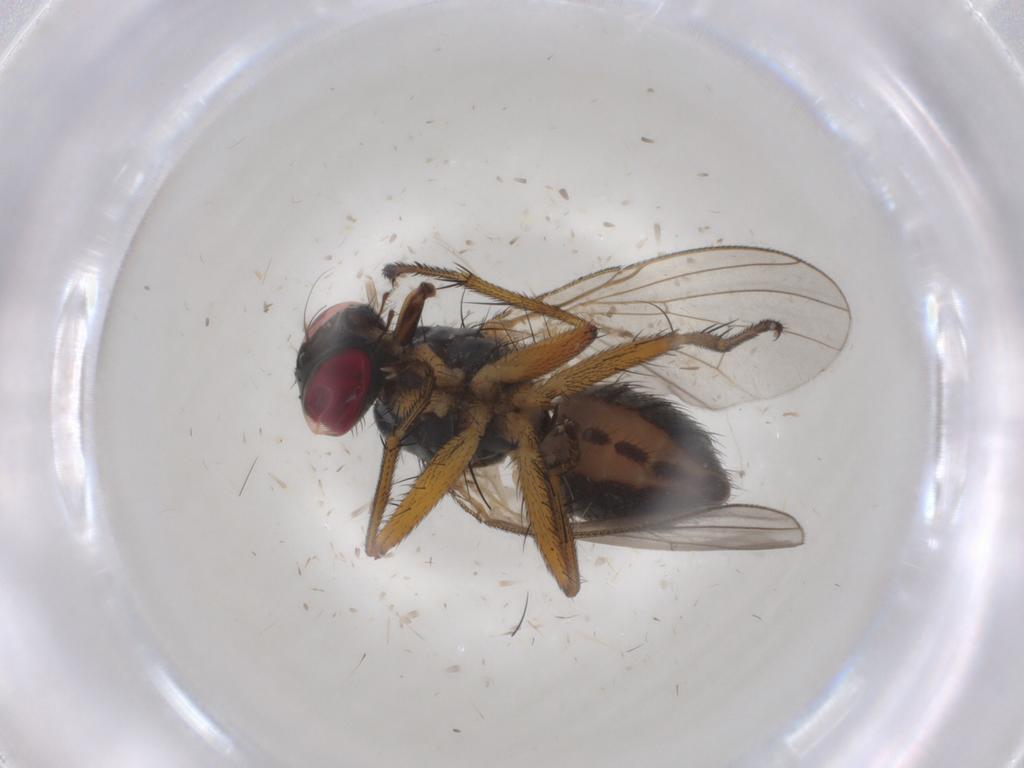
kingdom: Animalia
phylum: Arthropoda
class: Insecta
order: Diptera
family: Muscidae
